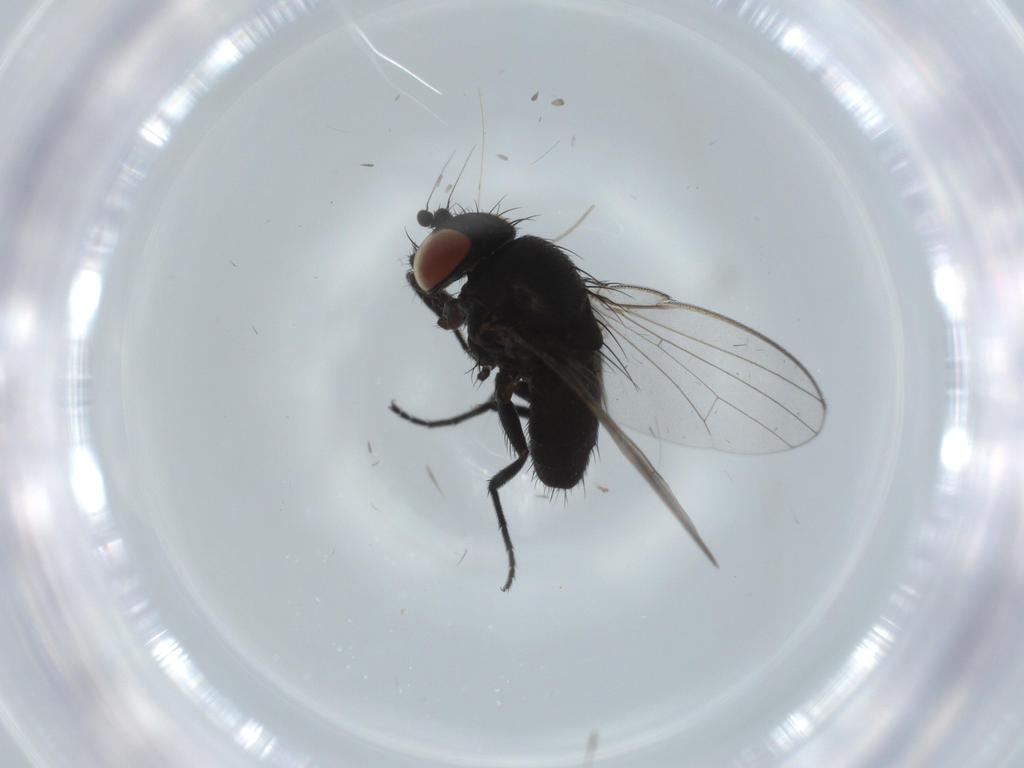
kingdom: Animalia
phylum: Arthropoda
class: Insecta
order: Diptera
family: Milichiidae
